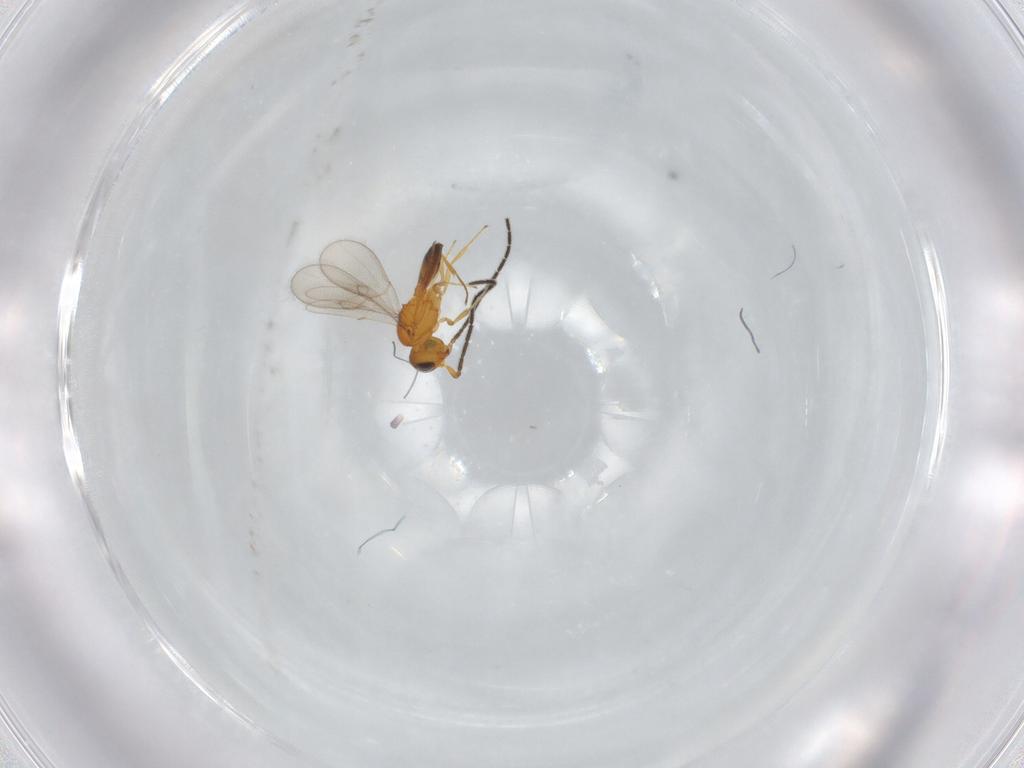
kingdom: Animalia
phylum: Arthropoda
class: Insecta
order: Hymenoptera
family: Scelionidae
